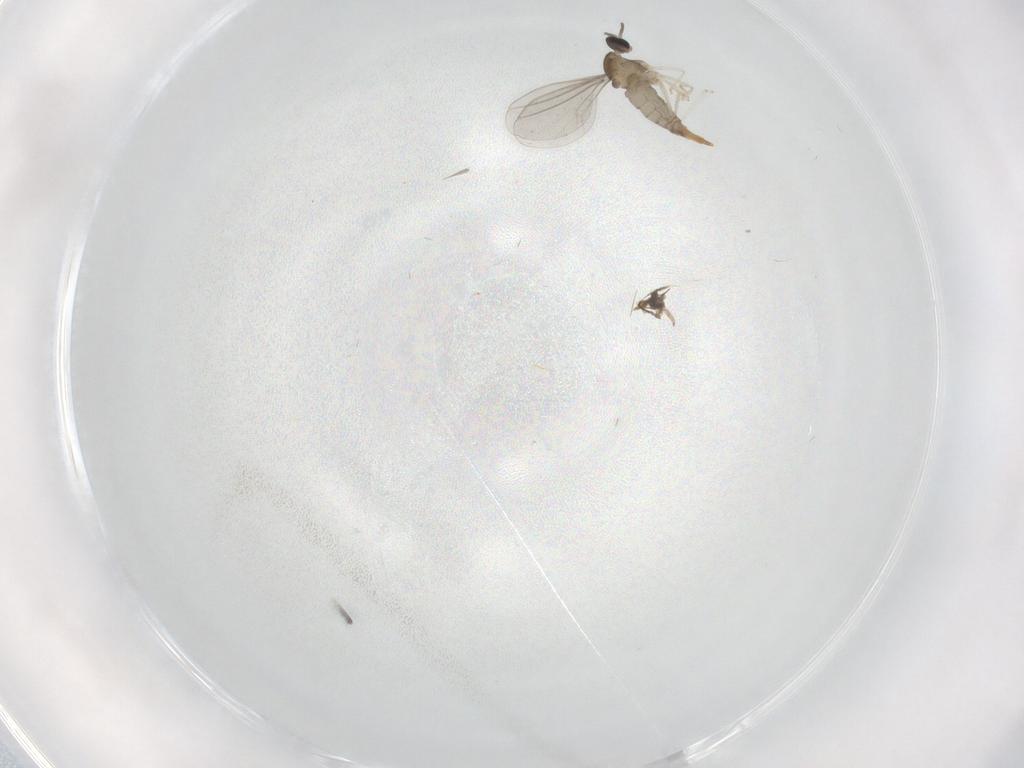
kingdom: Animalia
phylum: Arthropoda
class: Insecta
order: Diptera
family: Cecidomyiidae
